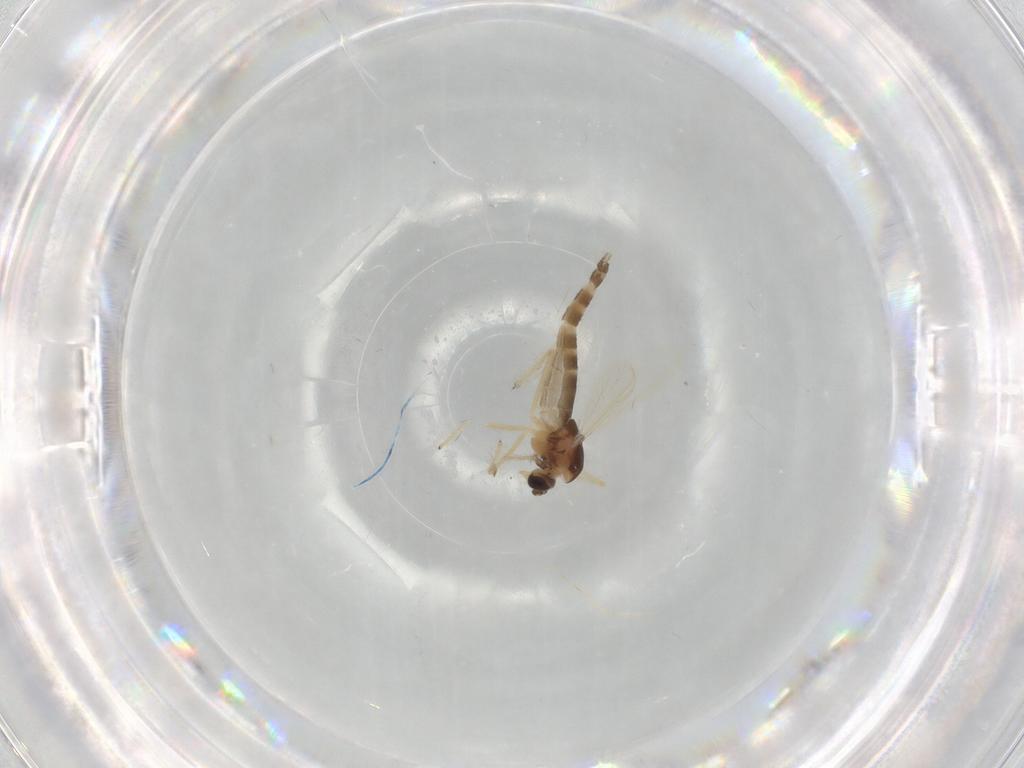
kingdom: Animalia
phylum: Arthropoda
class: Insecta
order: Diptera
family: Chironomidae
